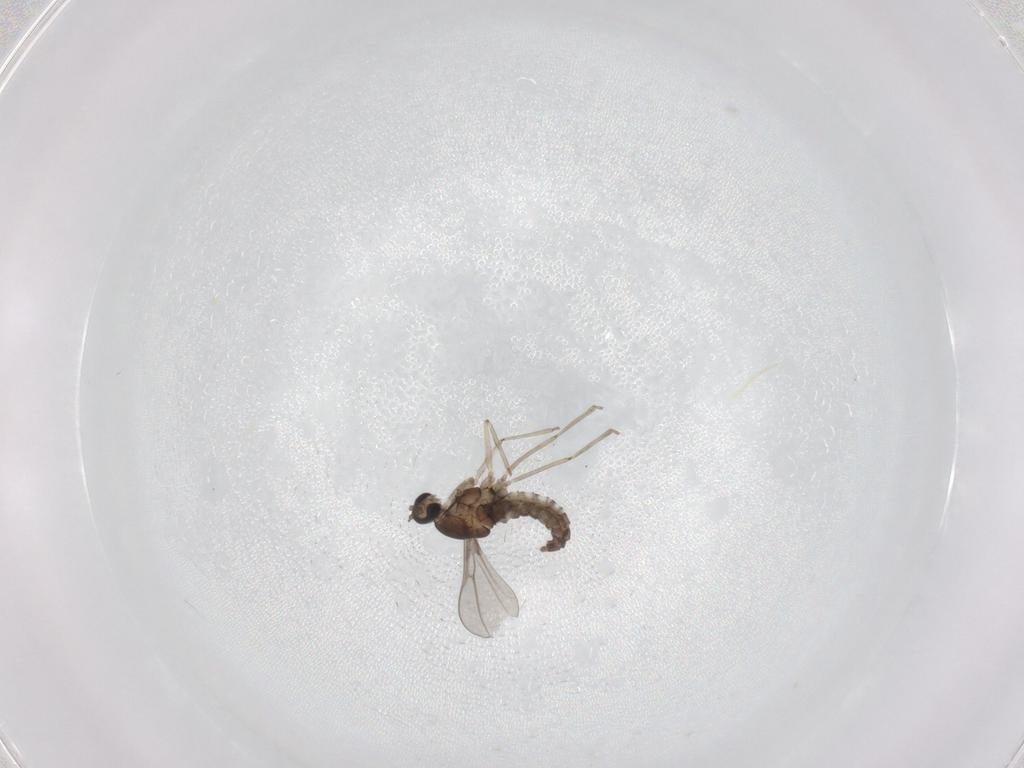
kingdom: Animalia
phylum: Arthropoda
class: Insecta
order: Diptera
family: Cecidomyiidae
